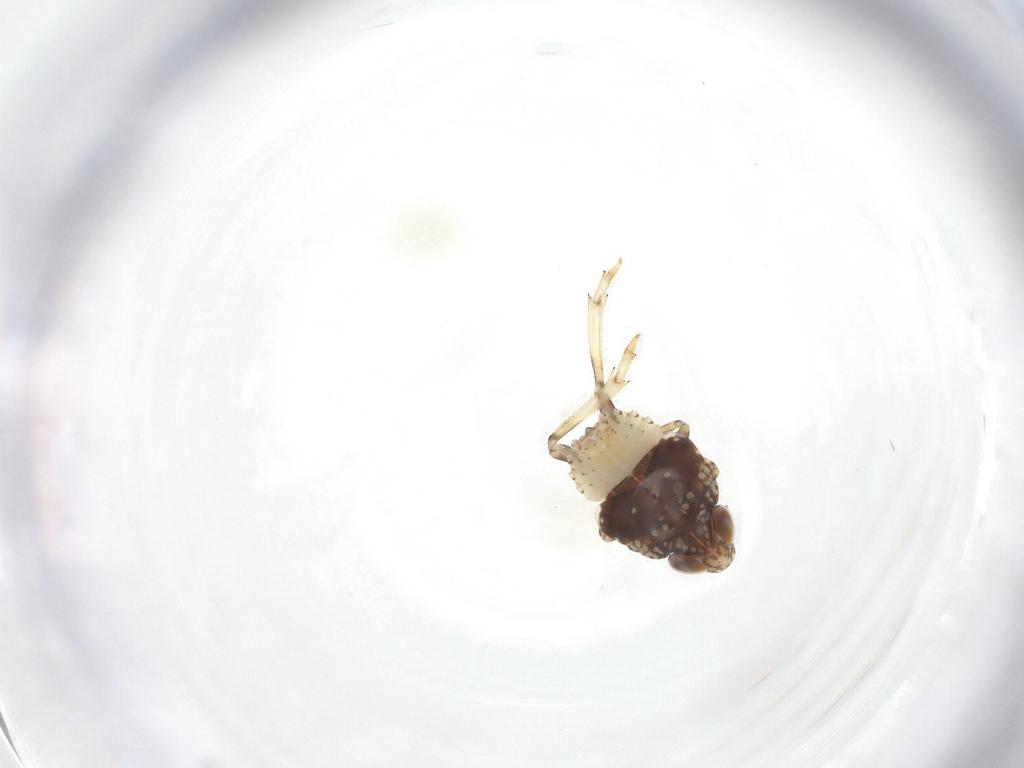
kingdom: Animalia
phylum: Arthropoda
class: Insecta
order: Hemiptera
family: Issidae
